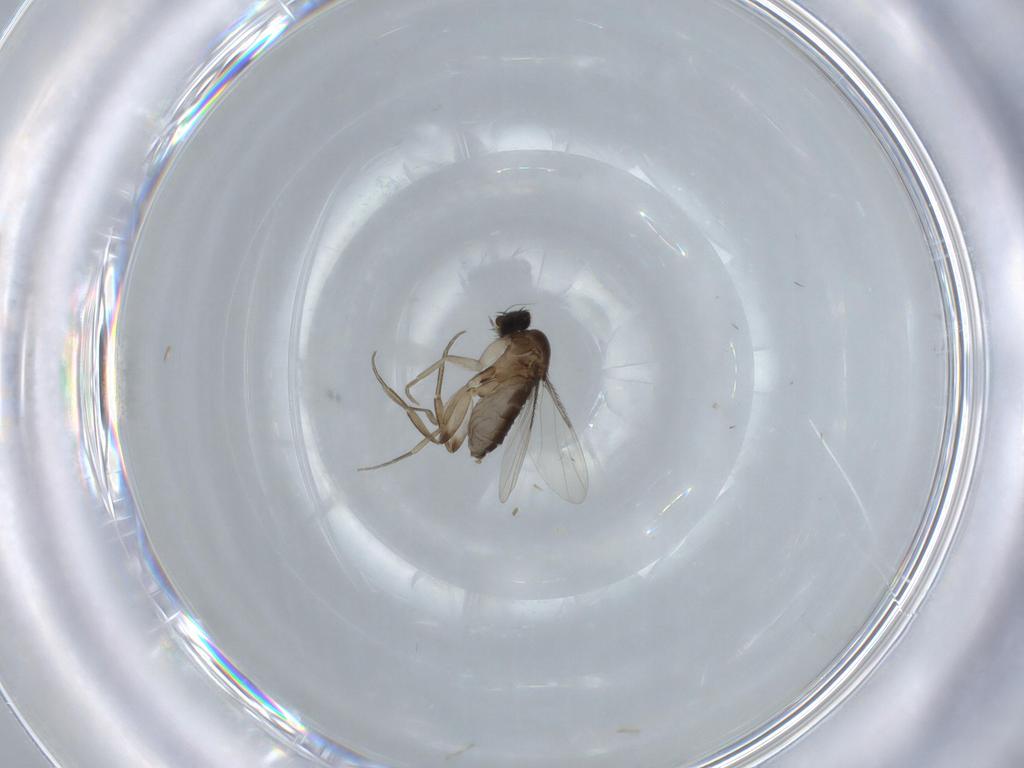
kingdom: Animalia
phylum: Arthropoda
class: Insecta
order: Diptera
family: Phoridae
